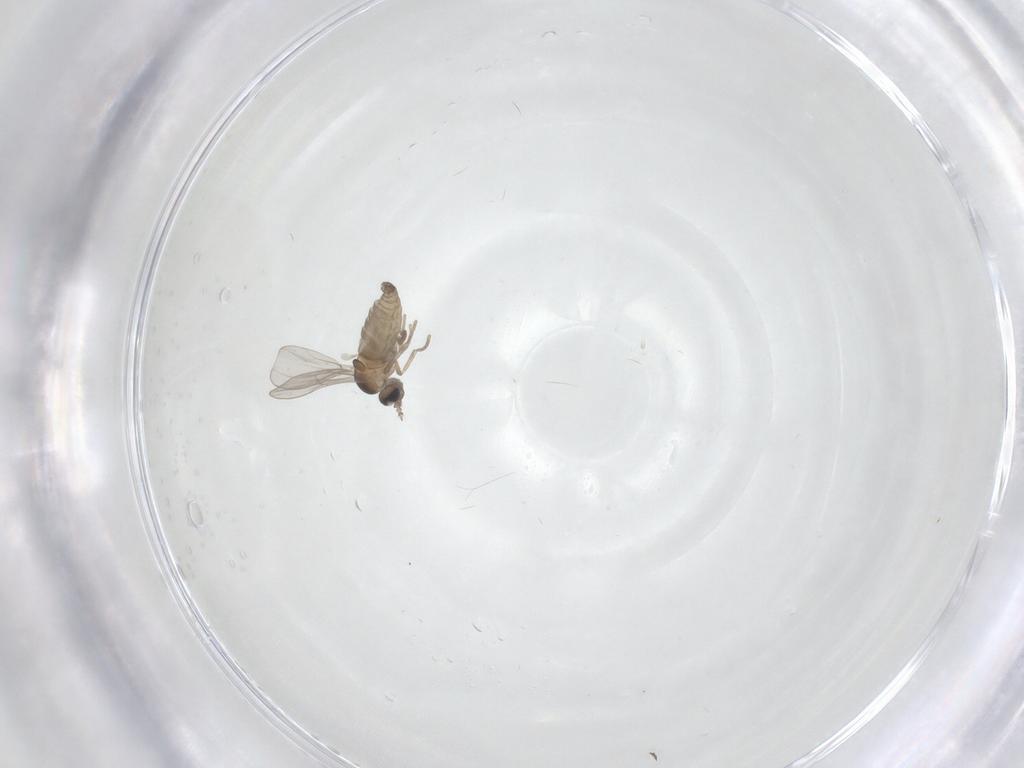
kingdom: Animalia
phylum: Arthropoda
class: Insecta
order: Diptera
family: Cecidomyiidae
